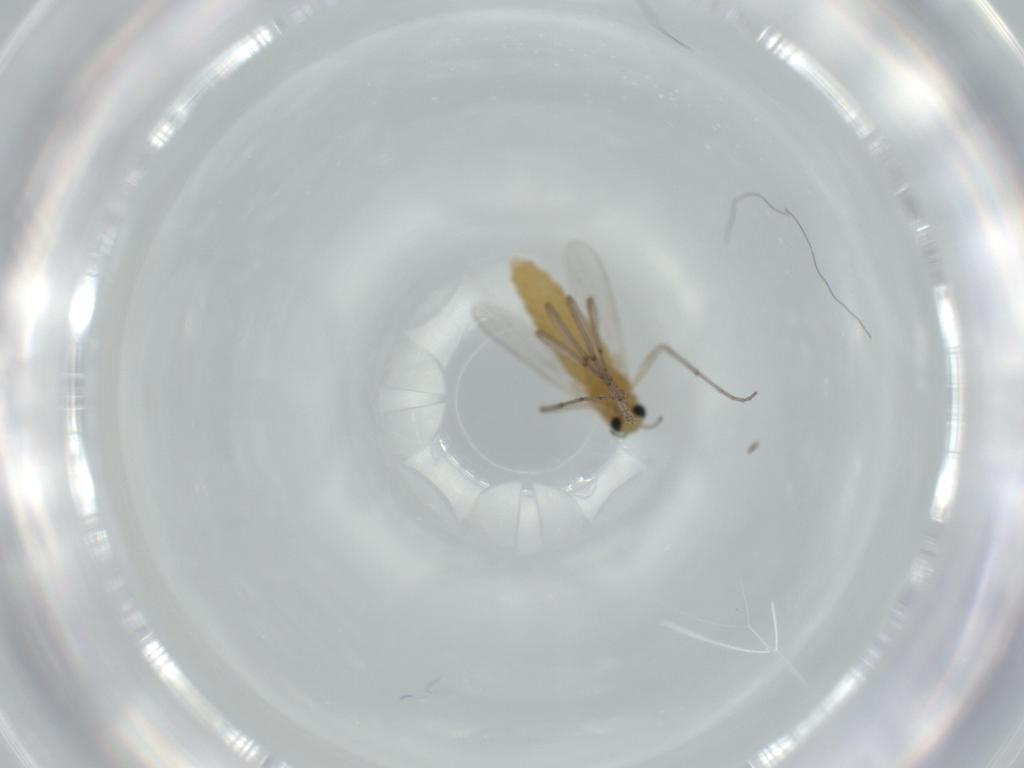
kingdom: Animalia
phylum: Arthropoda
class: Insecta
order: Diptera
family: Chironomidae
